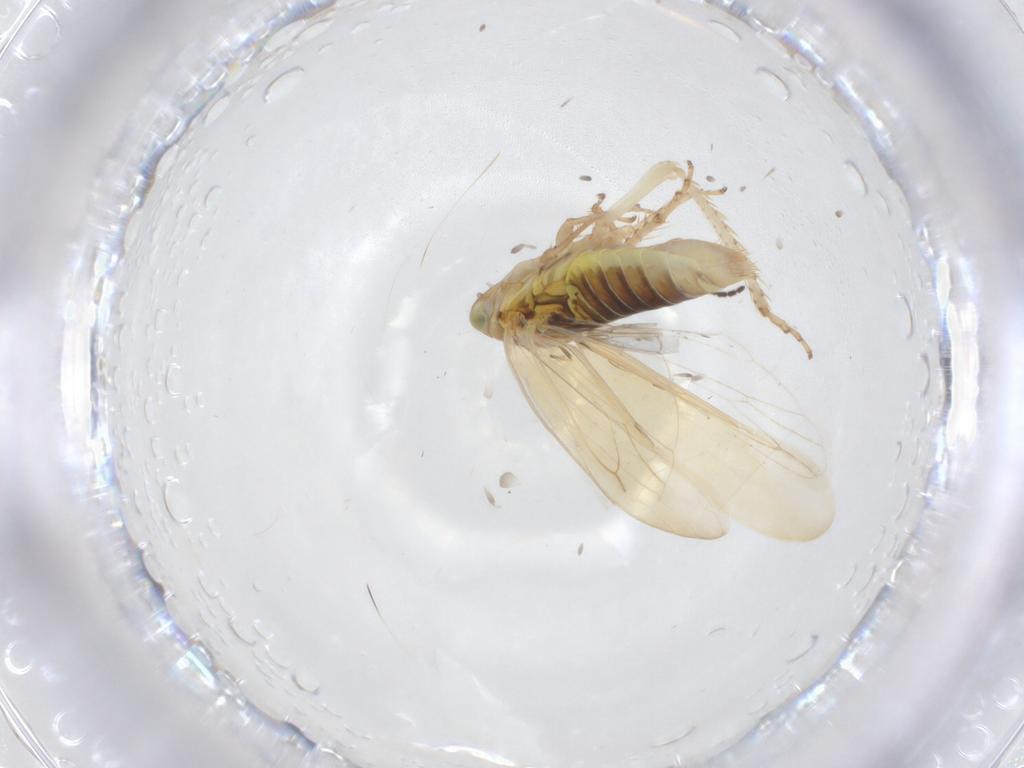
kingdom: Animalia
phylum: Arthropoda
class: Insecta
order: Hemiptera
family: Cicadellidae
